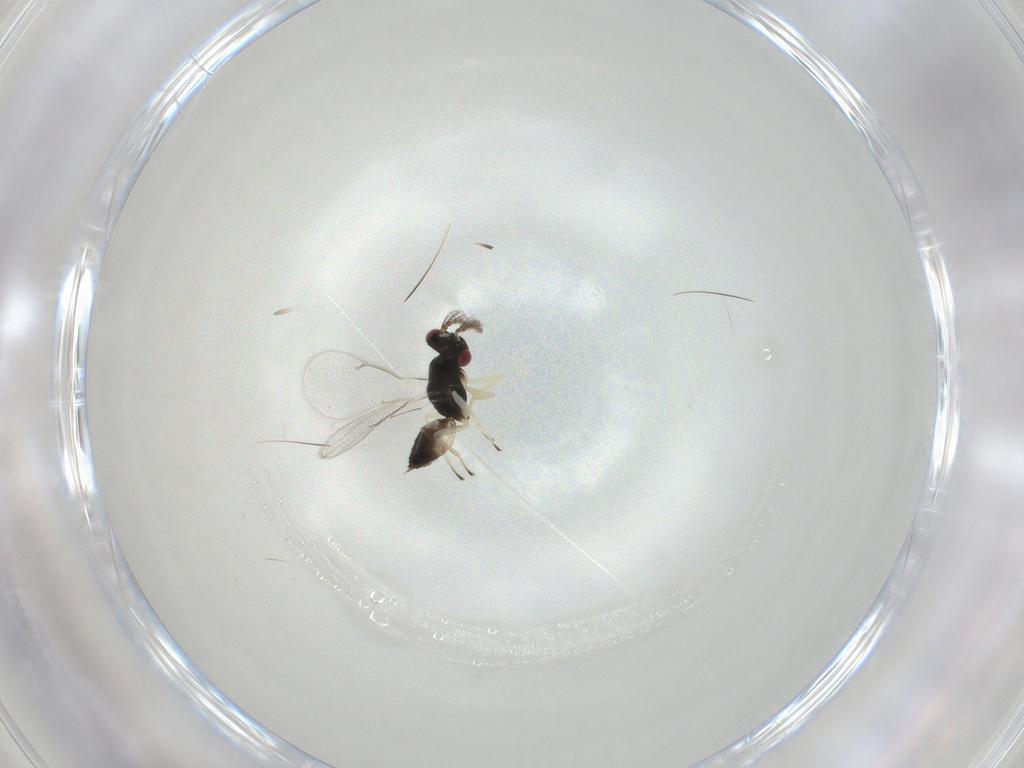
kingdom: Animalia
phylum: Arthropoda
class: Insecta
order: Hymenoptera
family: Eulophidae
